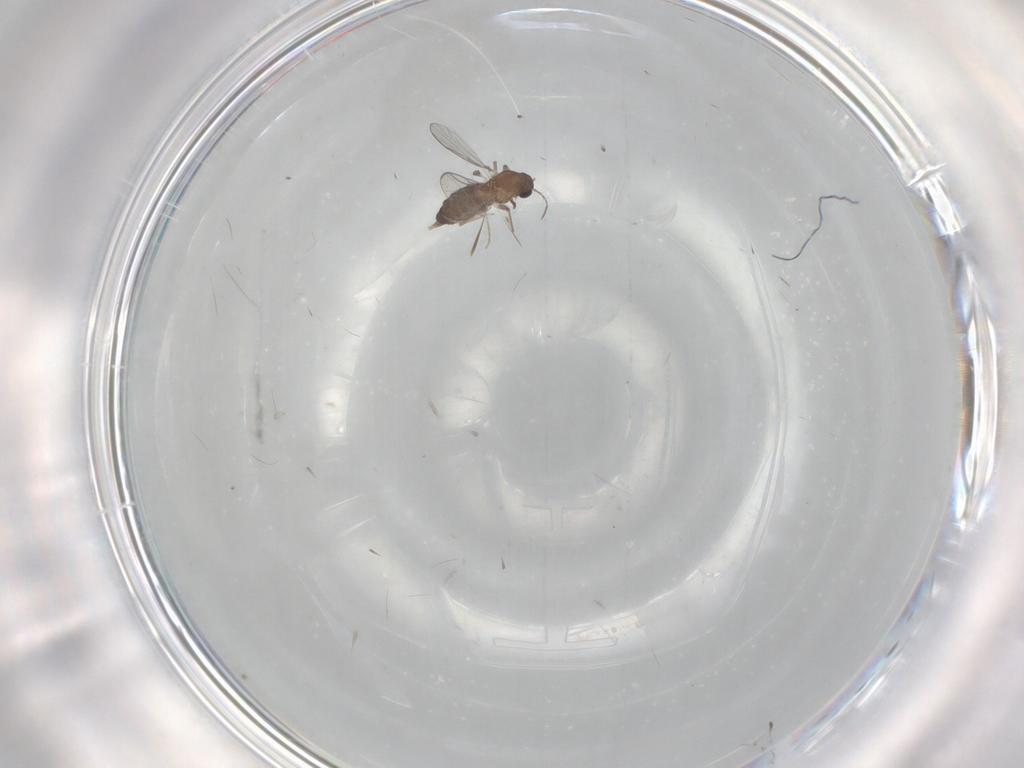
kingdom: Animalia
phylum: Arthropoda
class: Insecta
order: Diptera
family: Chironomidae
